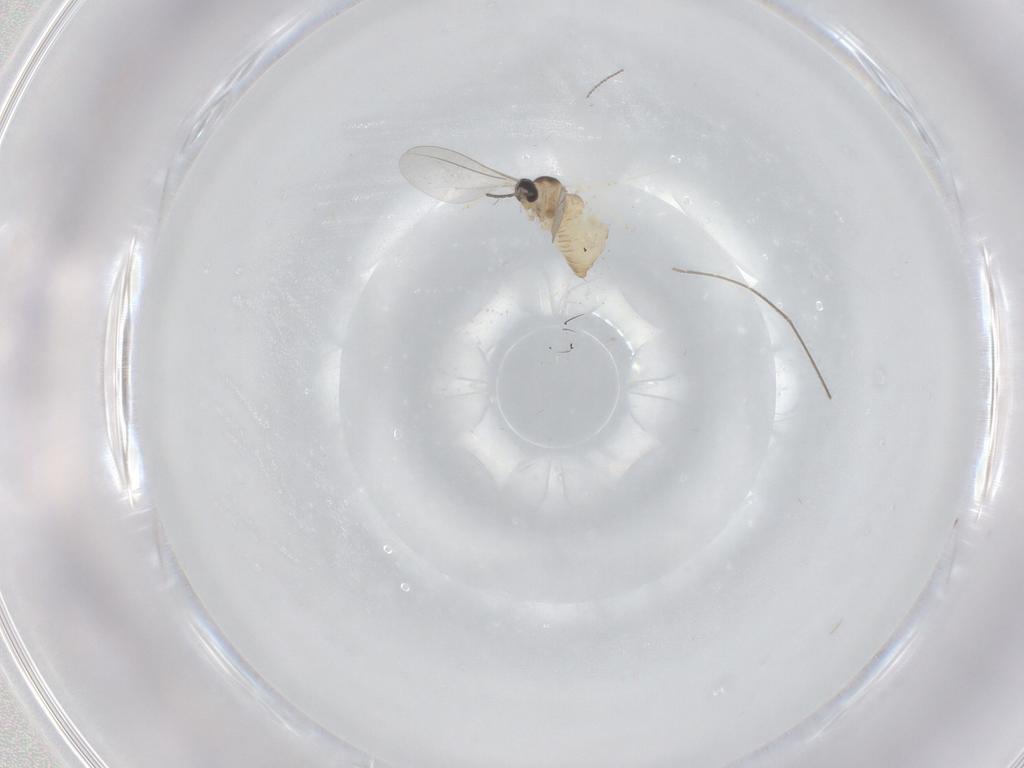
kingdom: Animalia
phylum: Arthropoda
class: Insecta
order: Diptera
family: Cecidomyiidae
